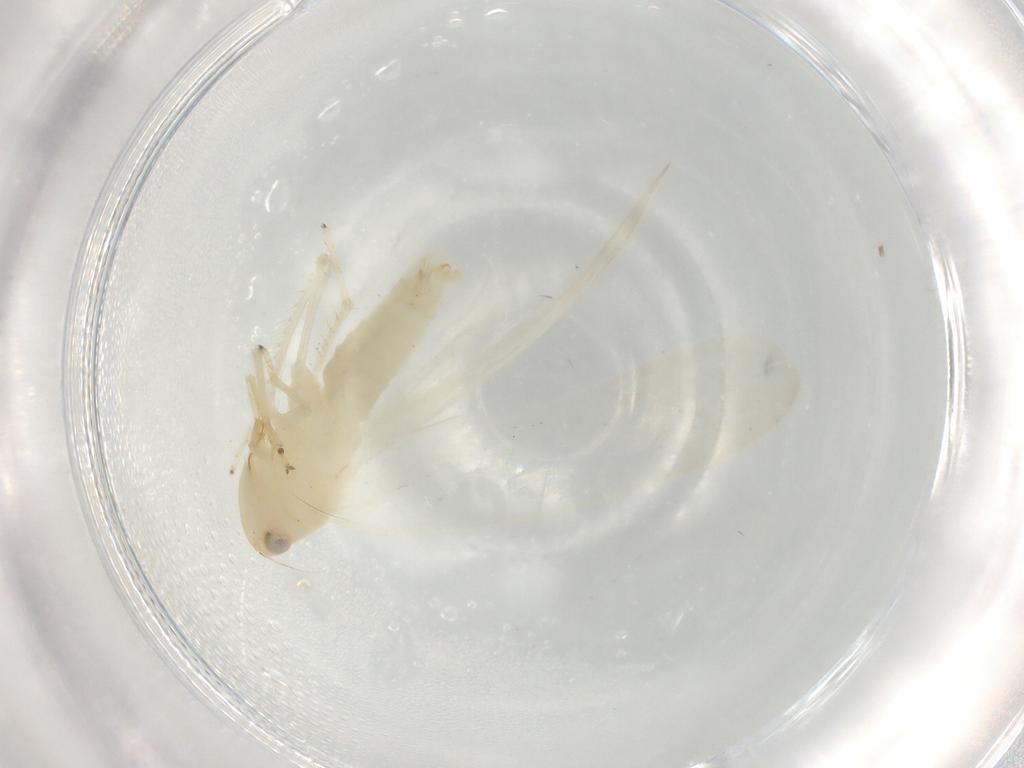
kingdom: Animalia
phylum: Arthropoda
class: Insecta
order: Hemiptera
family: Cicadellidae
